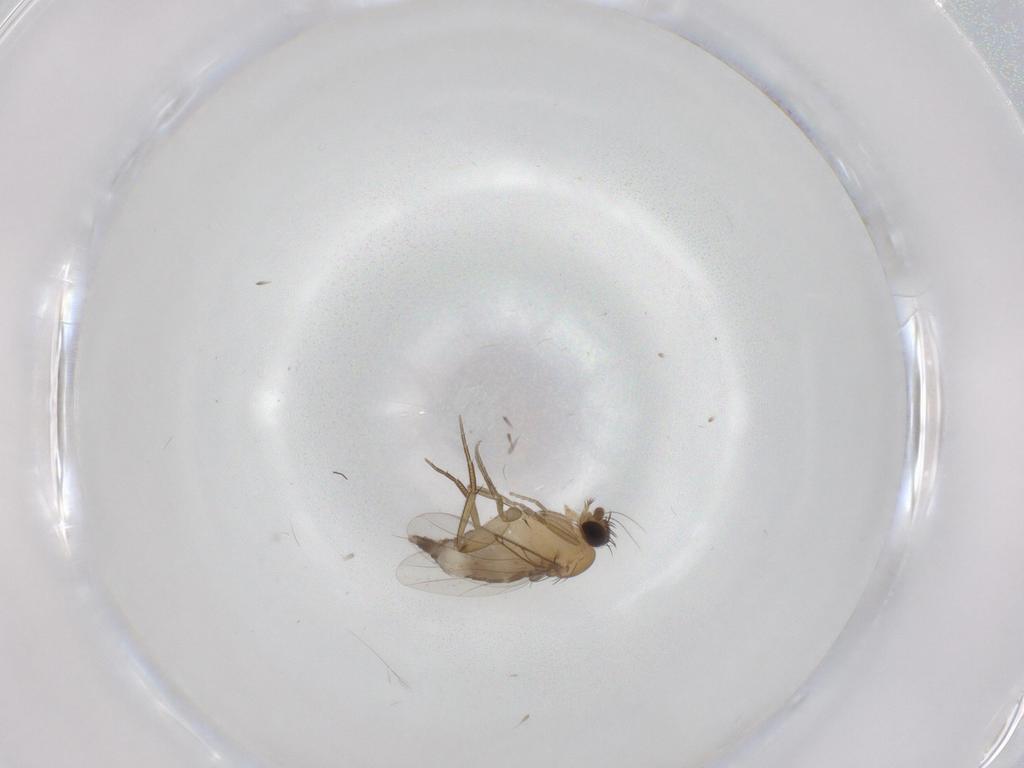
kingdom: Animalia
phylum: Arthropoda
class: Insecta
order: Diptera
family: Phoridae
